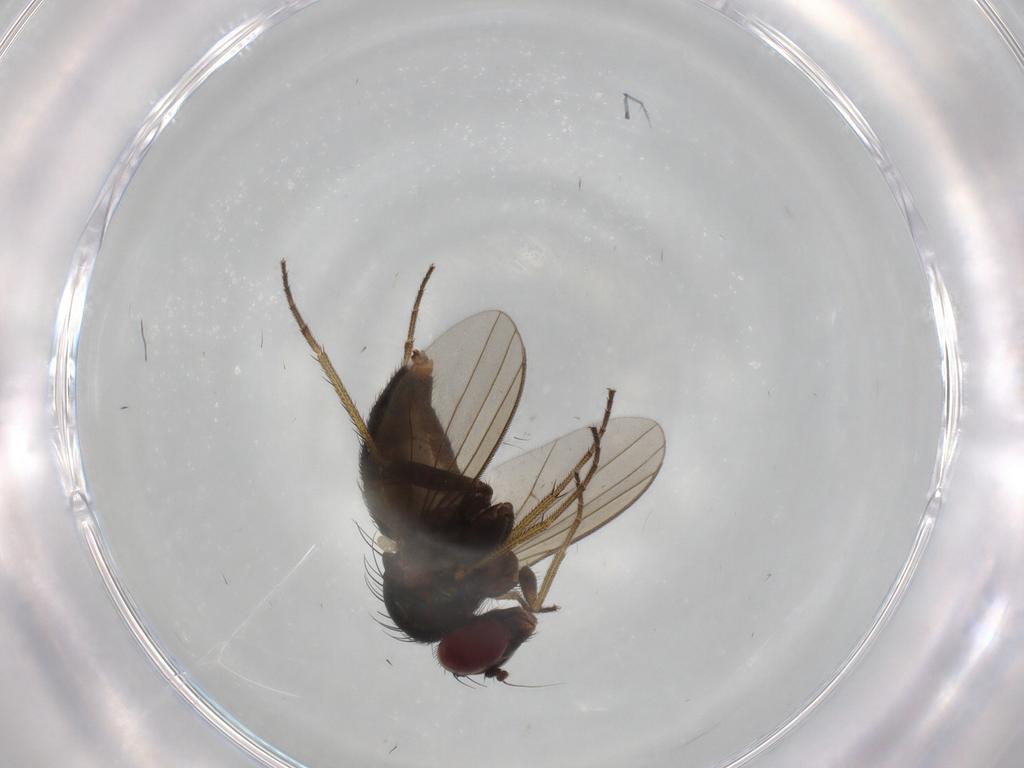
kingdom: Animalia
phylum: Arthropoda
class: Insecta
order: Diptera
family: Dolichopodidae
